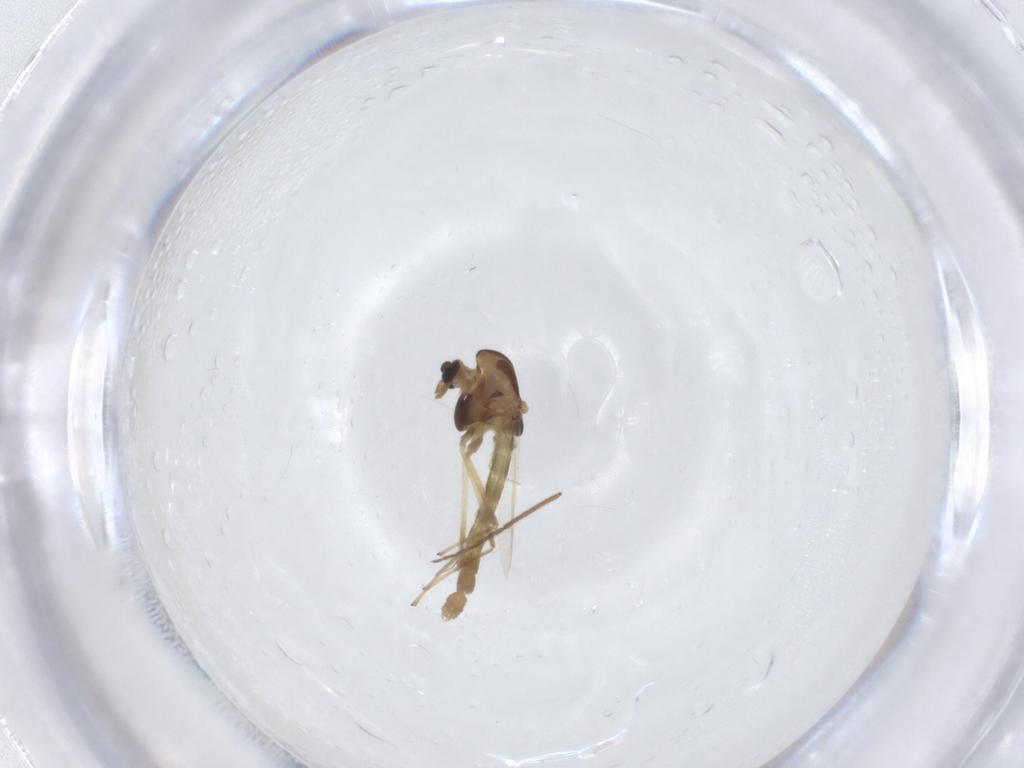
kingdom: Animalia
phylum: Arthropoda
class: Insecta
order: Diptera
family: Chironomidae
